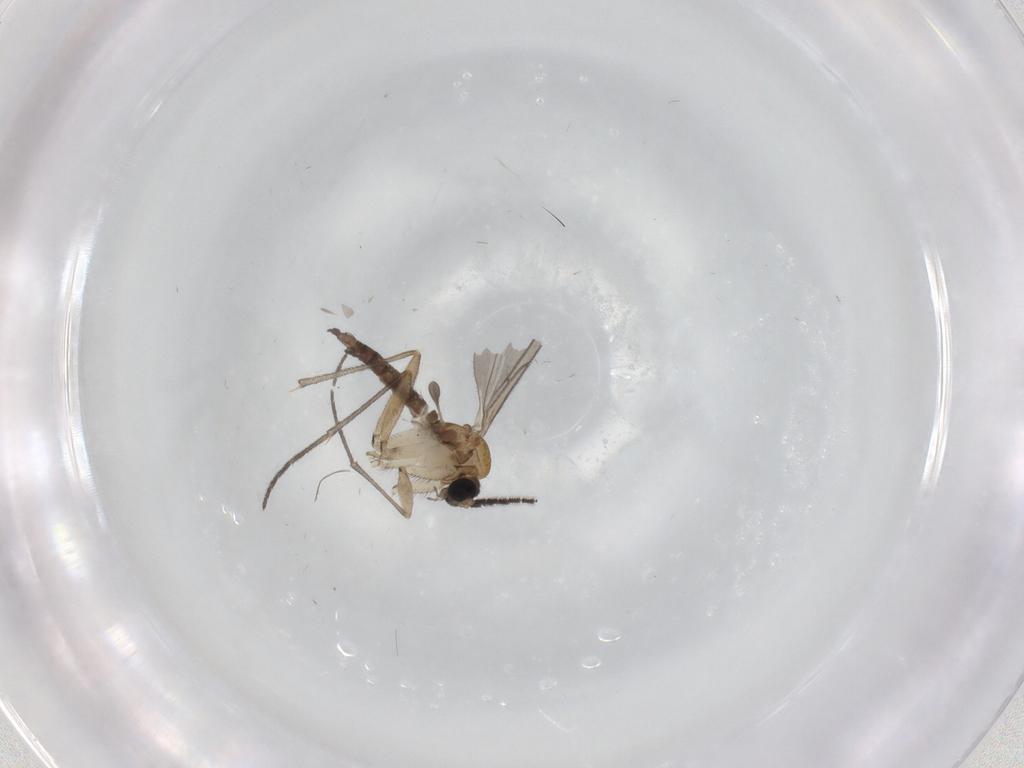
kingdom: Animalia
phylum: Arthropoda
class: Insecta
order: Diptera
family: Sciaridae
